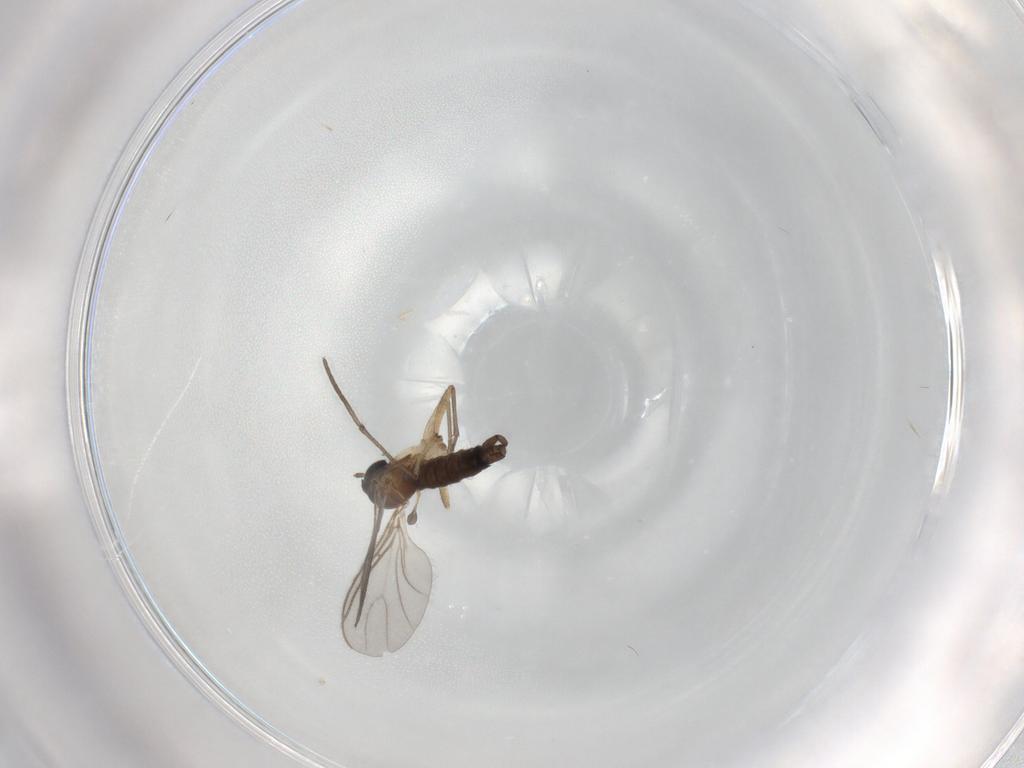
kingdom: Animalia
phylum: Arthropoda
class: Insecta
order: Diptera
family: Sciaridae
